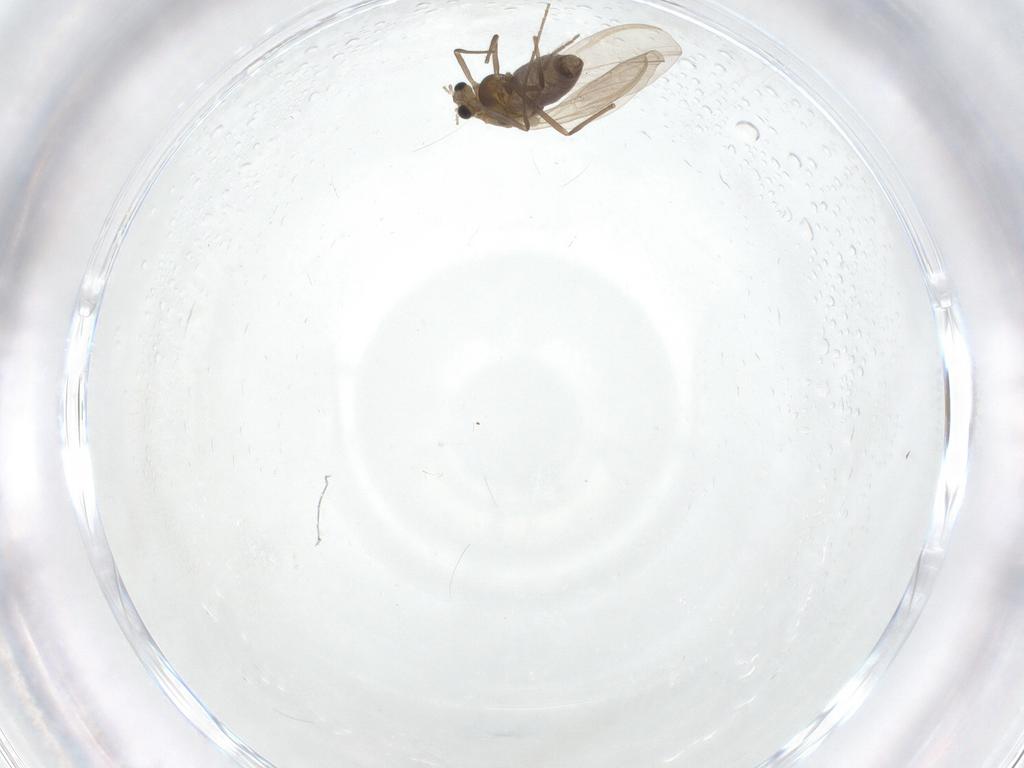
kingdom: Animalia
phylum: Arthropoda
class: Insecta
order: Diptera
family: Chironomidae
